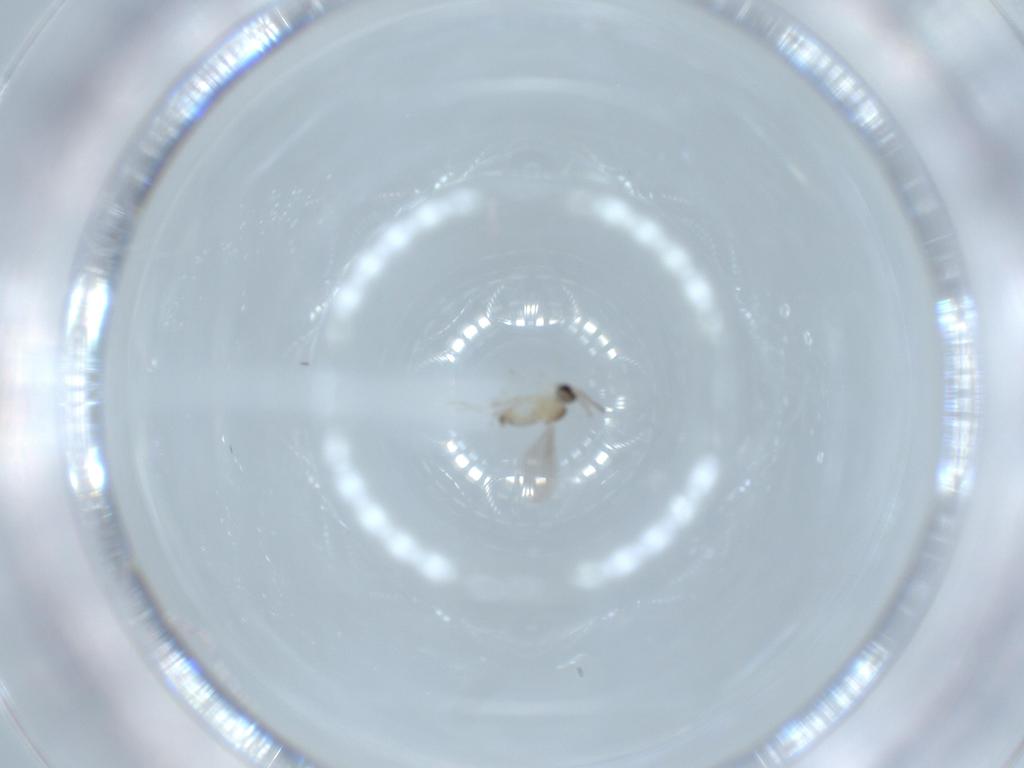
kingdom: Animalia
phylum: Arthropoda
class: Insecta
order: Diptera
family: Cecidomyiidae
